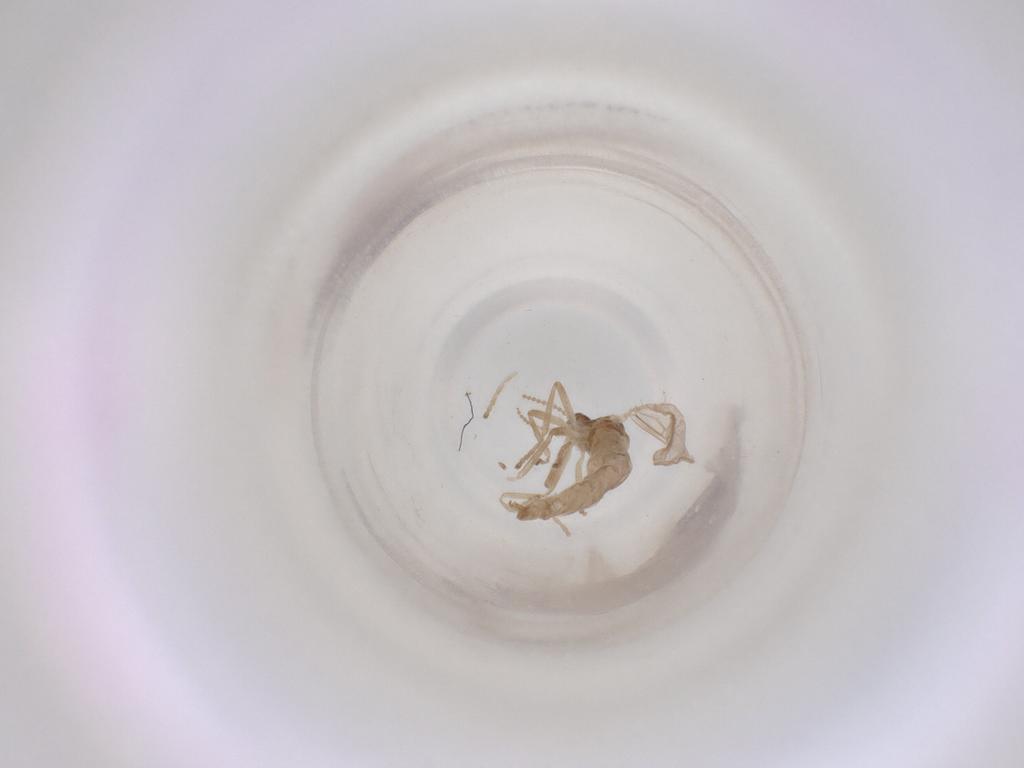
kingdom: Animalia
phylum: Arthropoda
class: Insecta
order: Diptera
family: Cecidomyiidae
